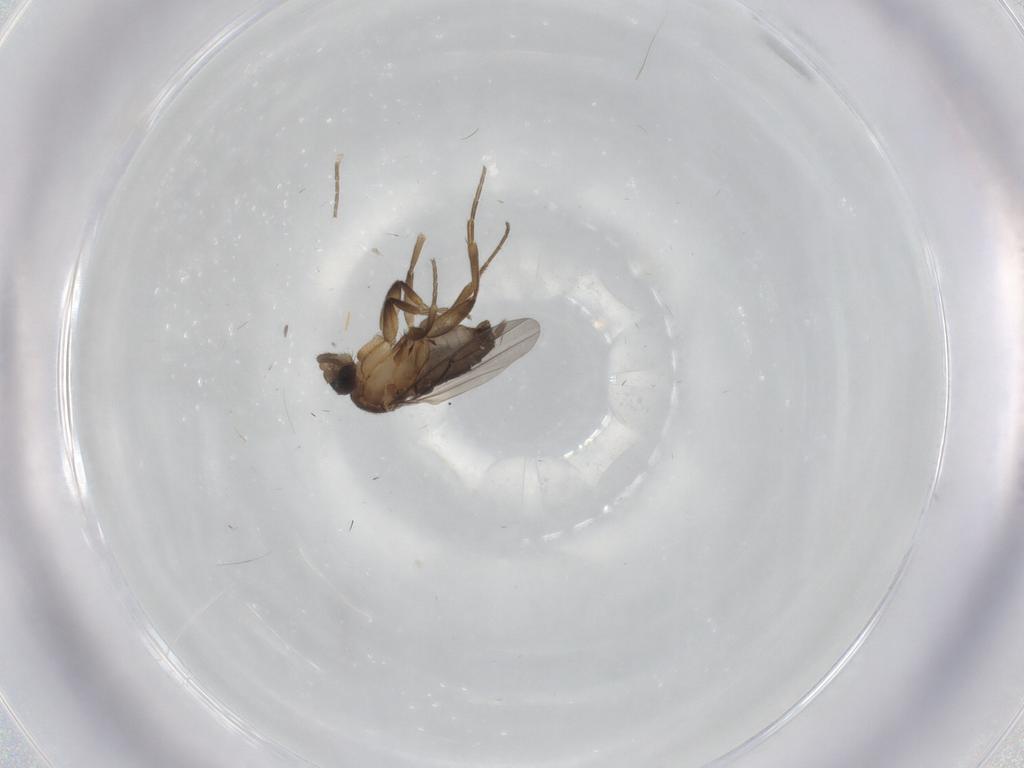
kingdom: Animalia
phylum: Arthropoda
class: Insecta
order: Diptera
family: Phoridae
